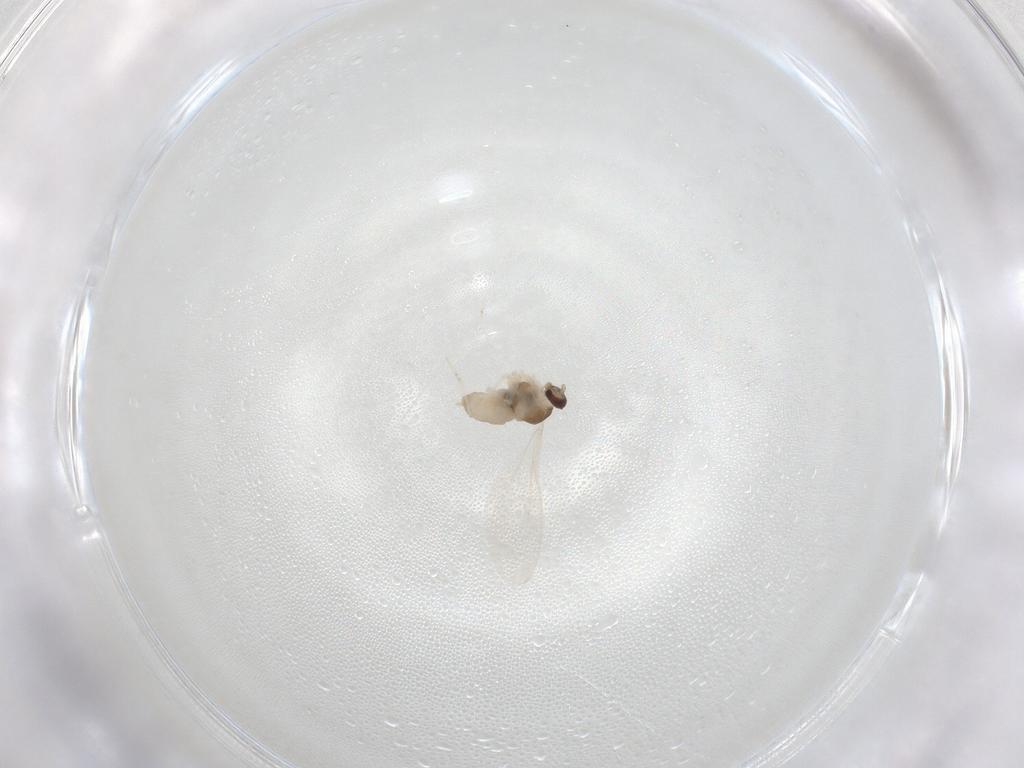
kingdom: Animalia
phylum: Arthropoda
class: Insecta
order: Diptera
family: Cecidomyiidae
